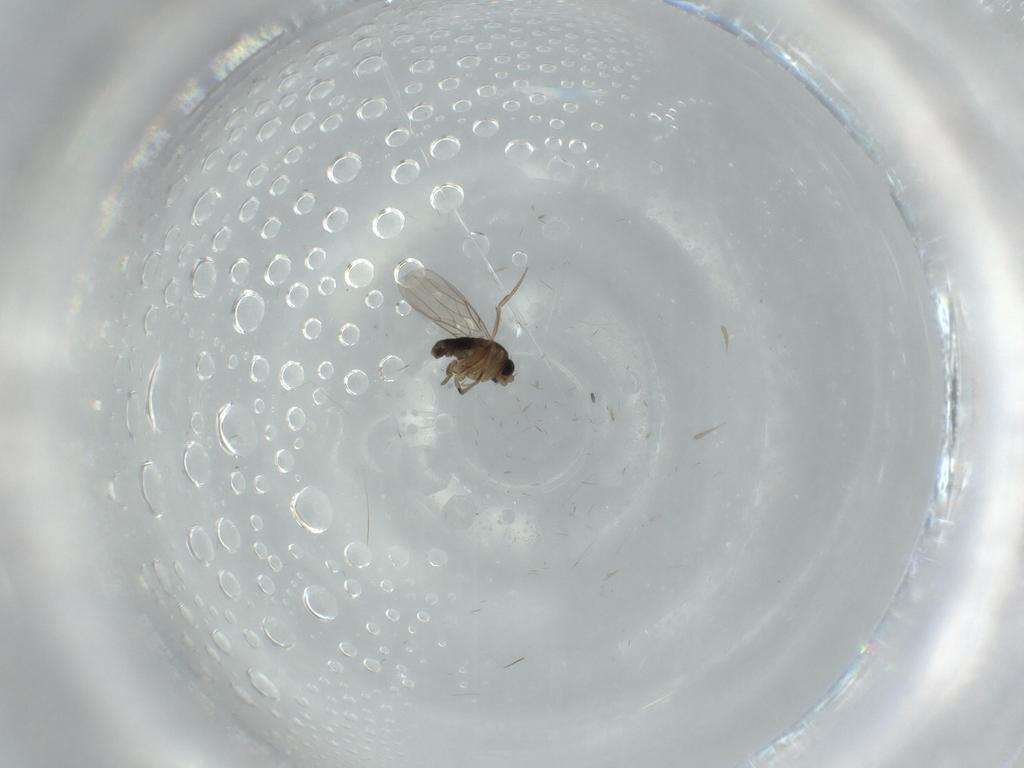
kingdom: Animalia
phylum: Arthropoda
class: Insecta
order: Diptera
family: Phoridae
